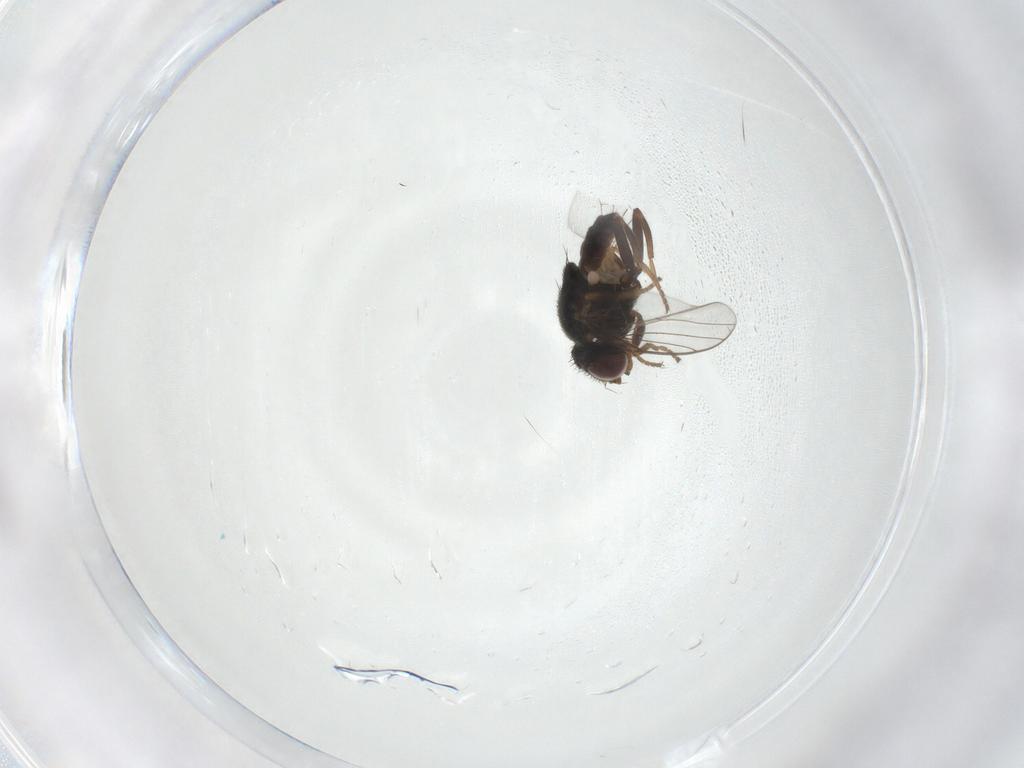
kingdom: Animalia
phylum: Arthropoda
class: Insecta
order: Diptera
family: Chloropidae
